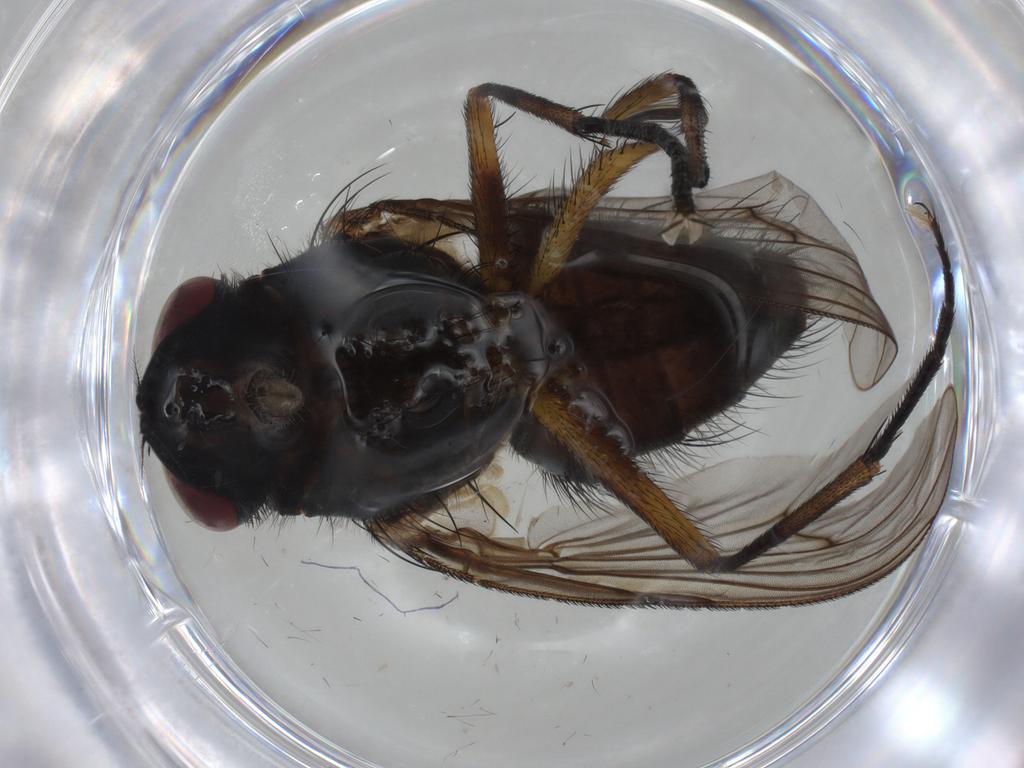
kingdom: Animalia
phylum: Arthropoda
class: Insecta
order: Diptera
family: Muscidae
